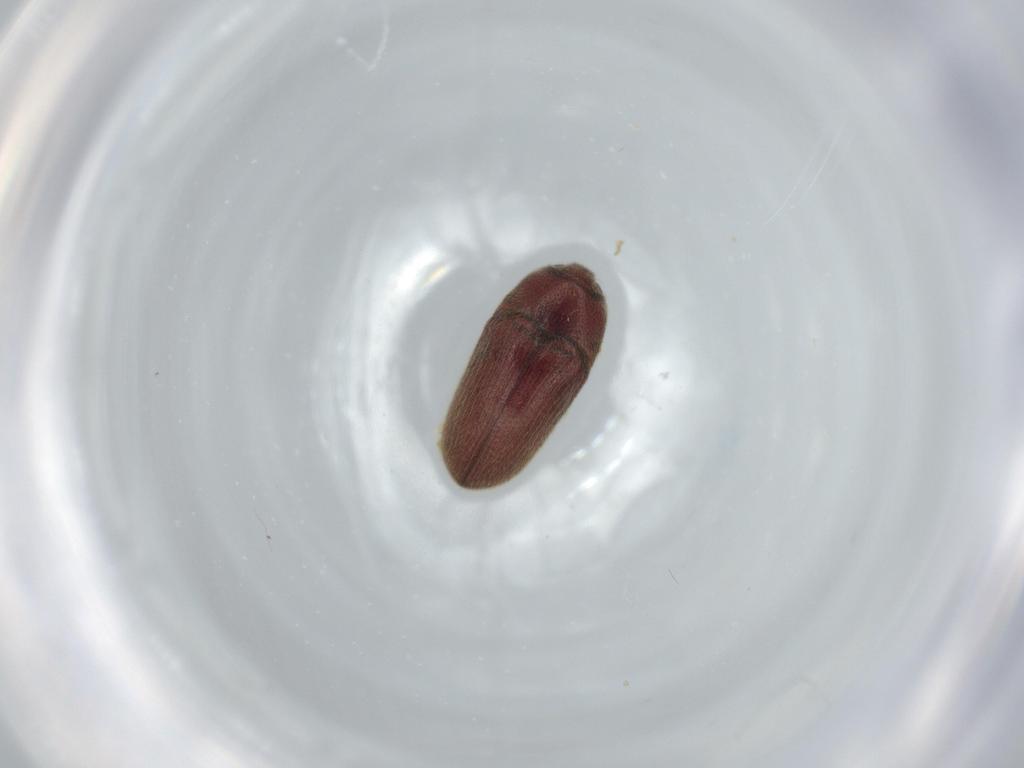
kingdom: Animalia
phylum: Arthropoda
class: Insecta
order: Coleoptera
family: Throscidae
